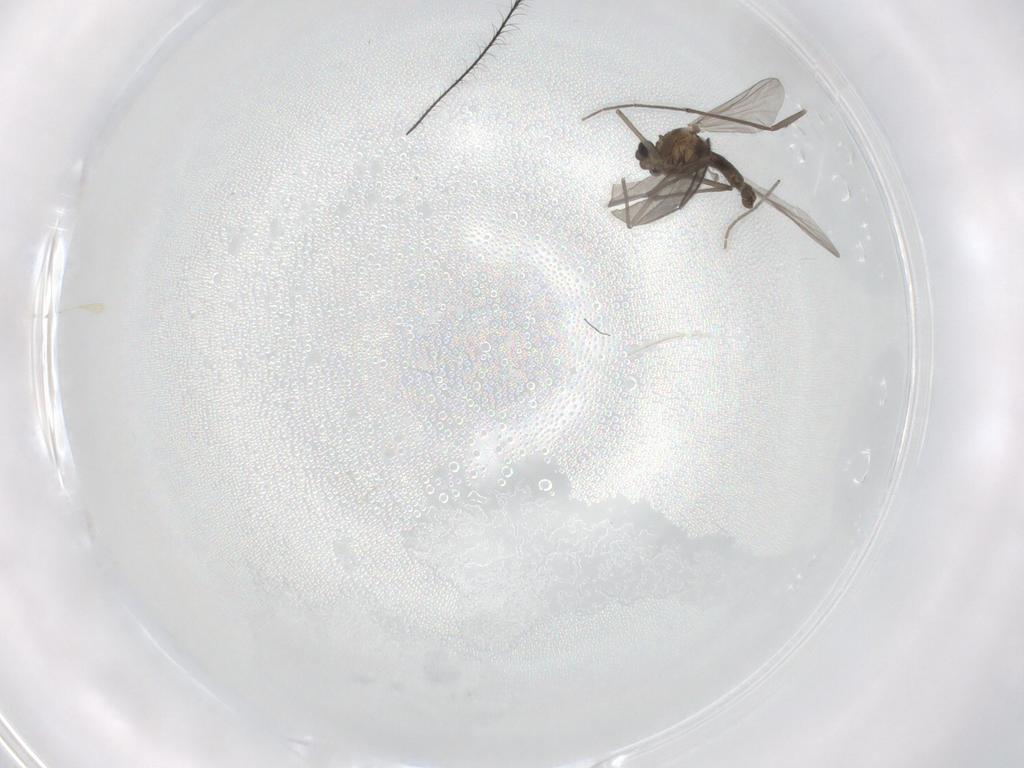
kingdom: Animalia
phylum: Arthropoda
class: Insecta
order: Diptera
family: Chironomidae
